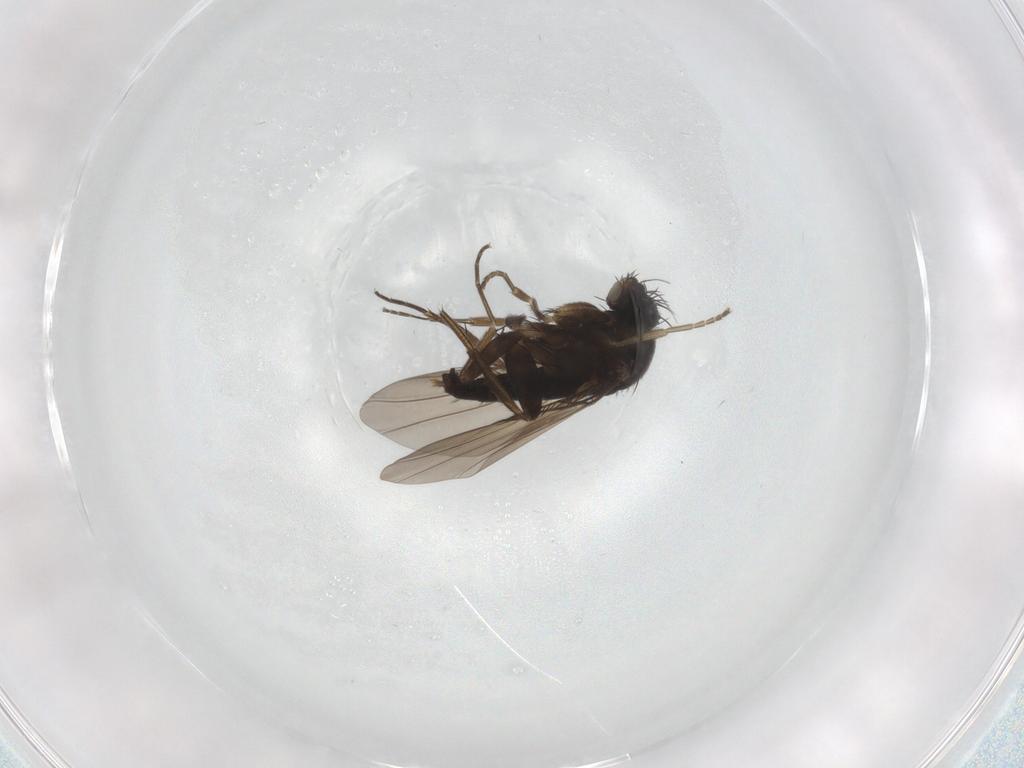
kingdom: Animalia
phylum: Arthropoda
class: Insecta
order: Diptera
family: Phoridae
